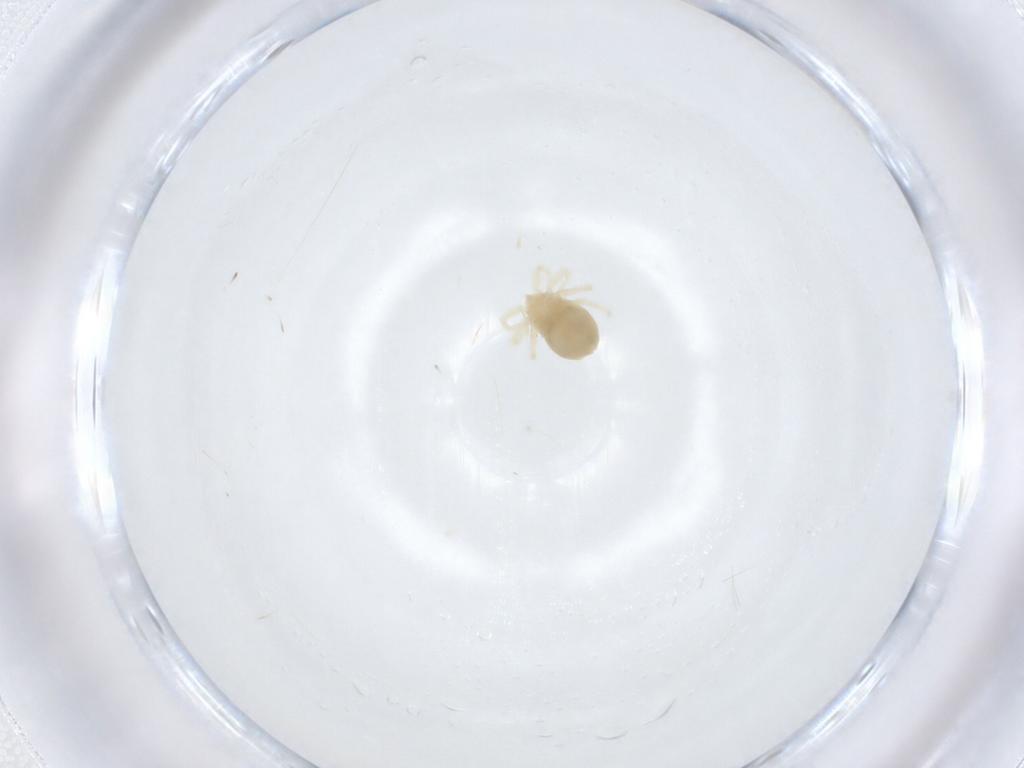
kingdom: Animalia
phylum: Arthropoda
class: Arachnida
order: Trombidiformes
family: Anystidae
